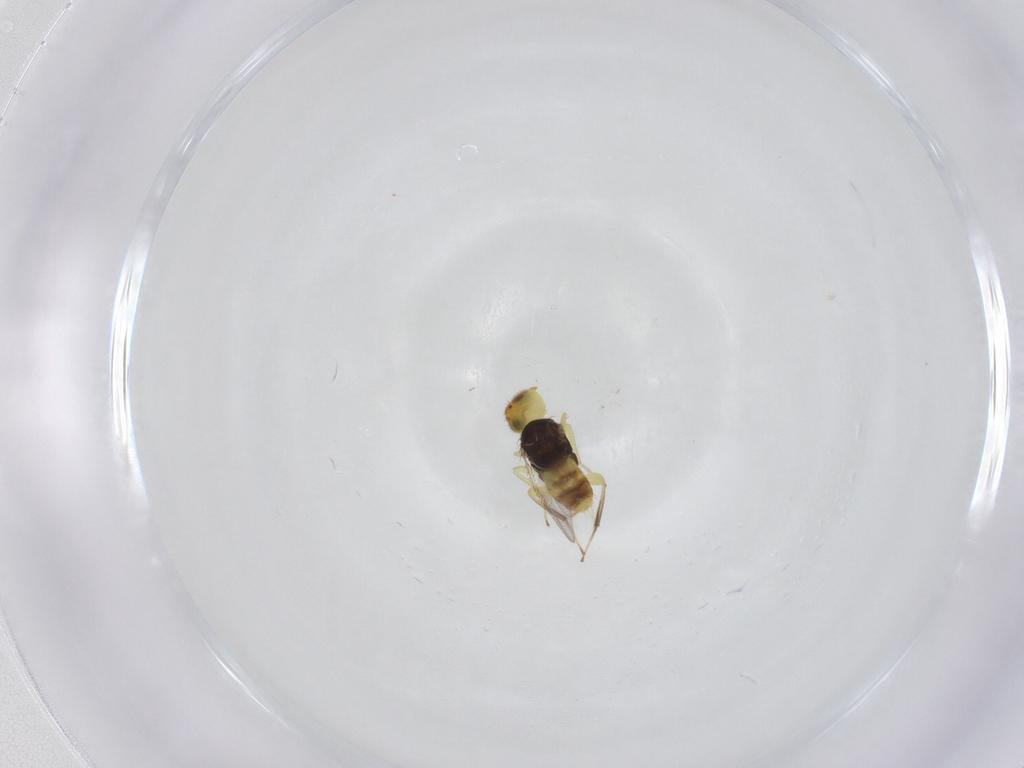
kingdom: Animalia
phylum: Arthropoda
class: Insecta
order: Hymenoptera
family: Aphelinidae
